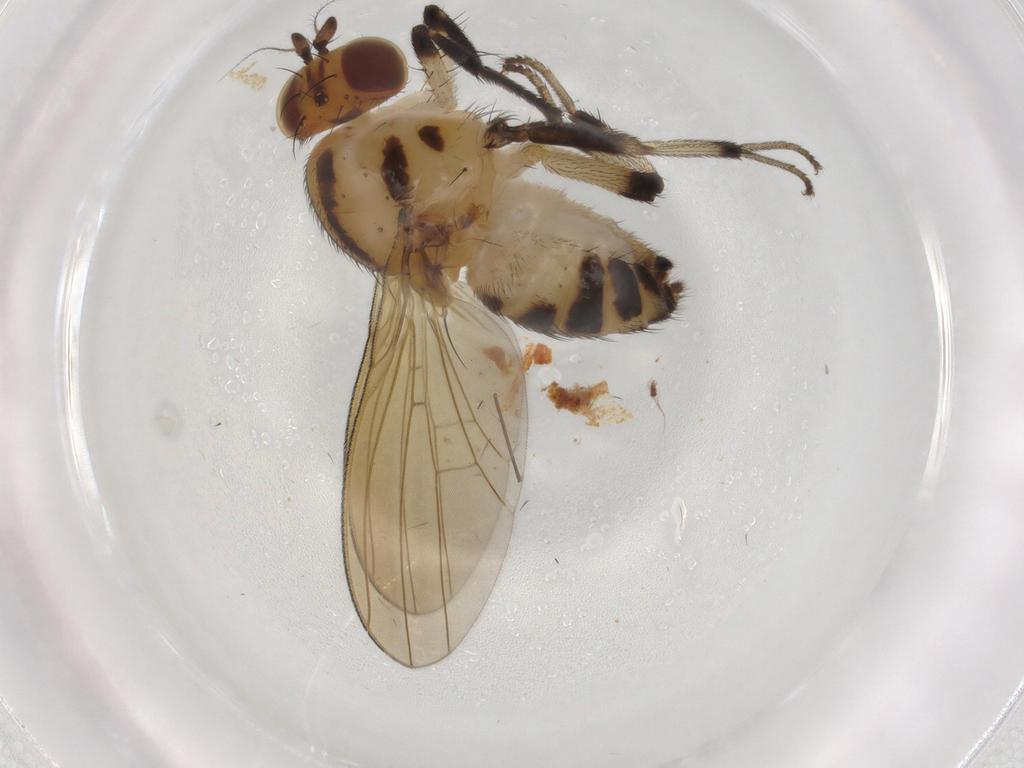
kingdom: Animalia
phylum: Arthropoda
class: Insecta
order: Diptera
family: Lauxaniidae
